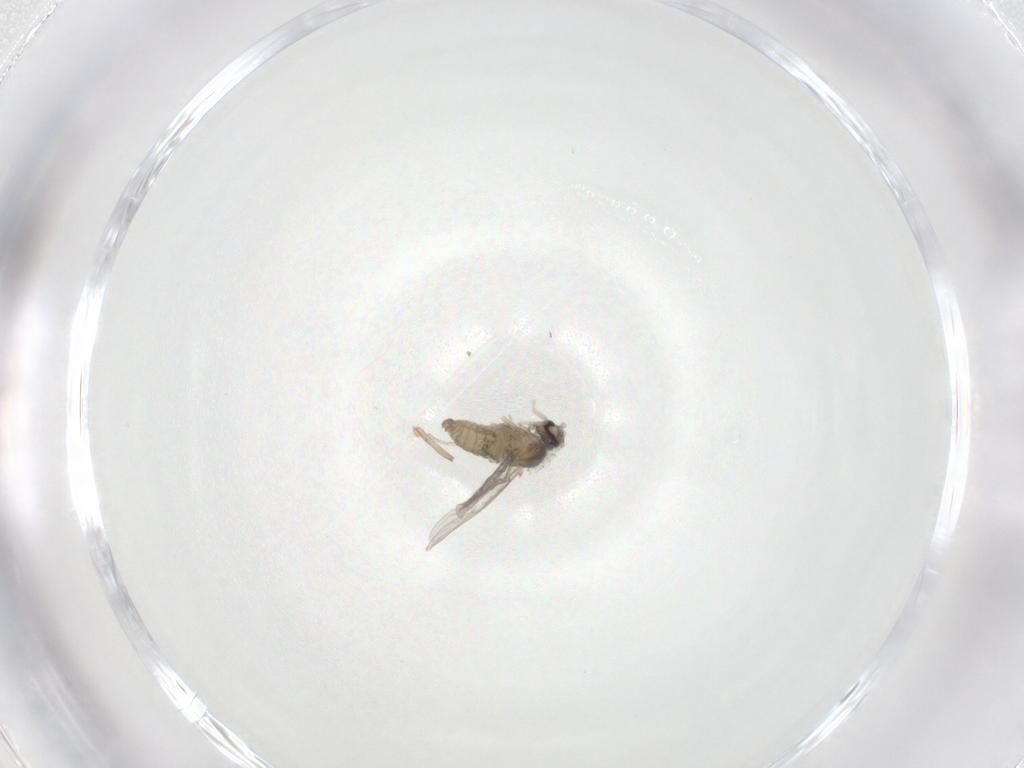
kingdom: Animalia
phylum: Arthropoda
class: Insecta
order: Diptera
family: Cecidomyiidae
